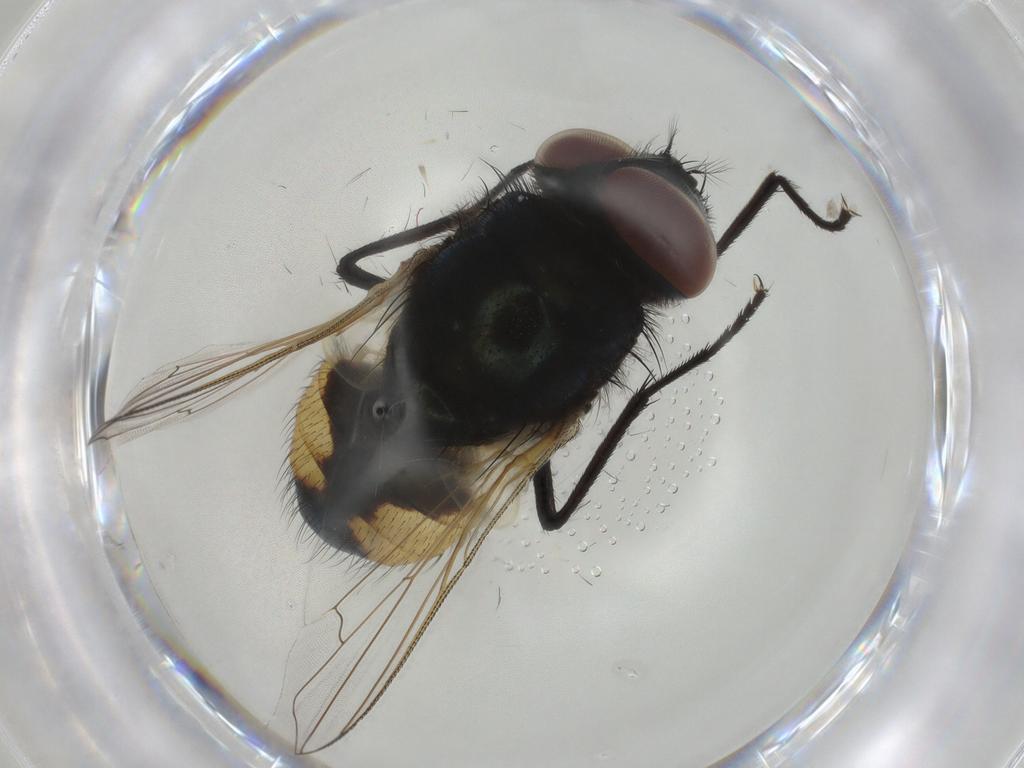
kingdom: Animalia
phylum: Arthropoda
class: Insecta
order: Diptera
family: Muscidae
